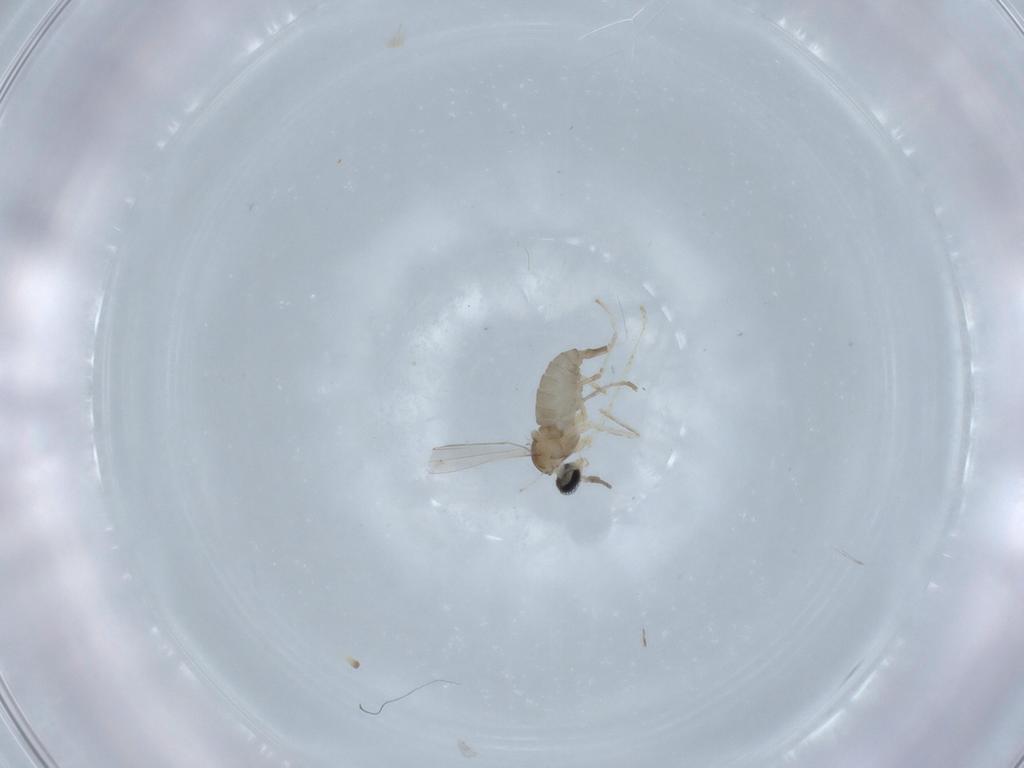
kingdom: Animalia
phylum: Arthropoda
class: Insecta
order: Diptera
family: Cecidomyiidae
